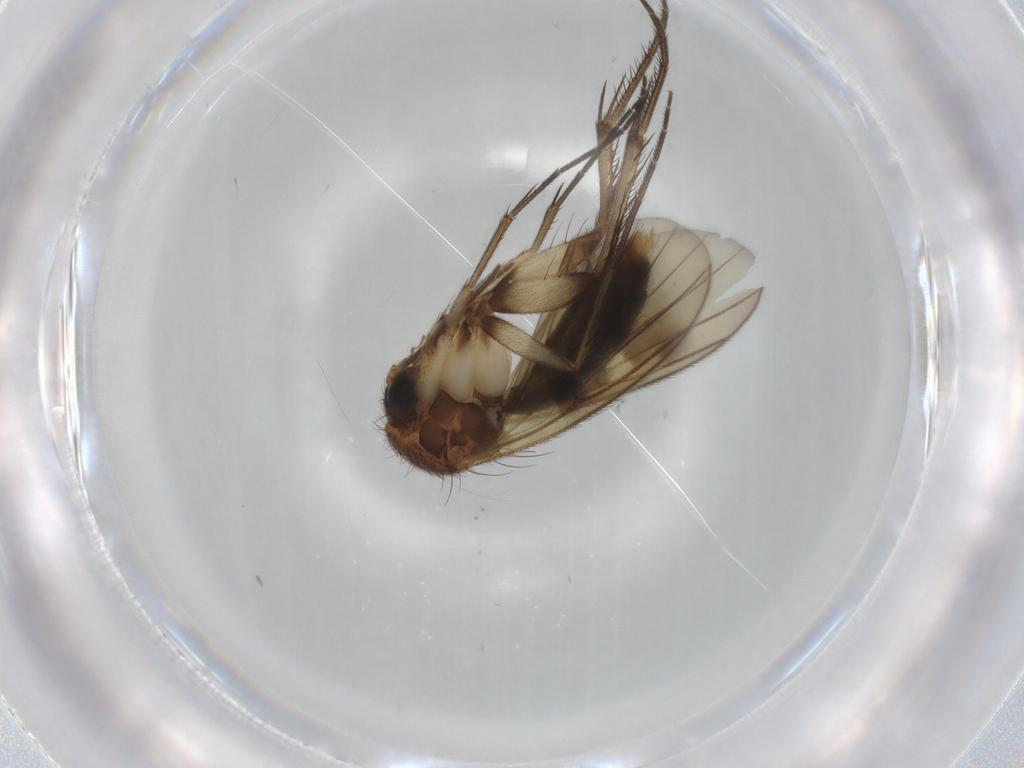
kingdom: Animalia
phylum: Arthropoda
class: Insecta
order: Diptera
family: Mycetophilidae
